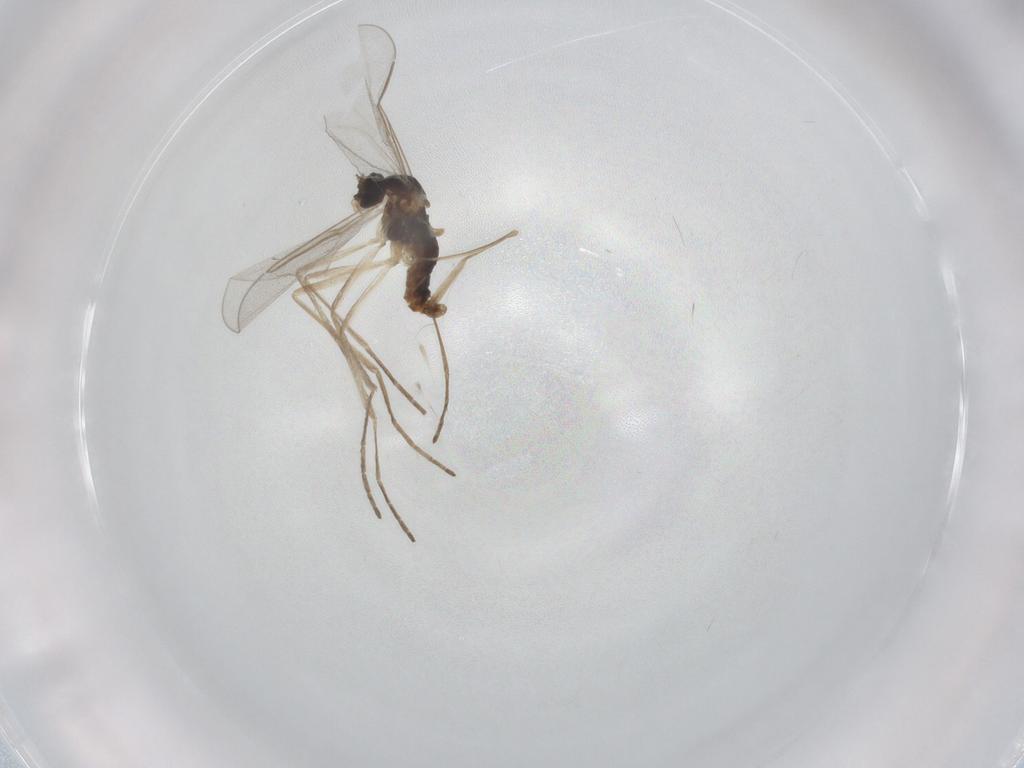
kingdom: Animalia
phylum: Arthropoda
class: Insecta
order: Diptera
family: Cecidomyiidae
